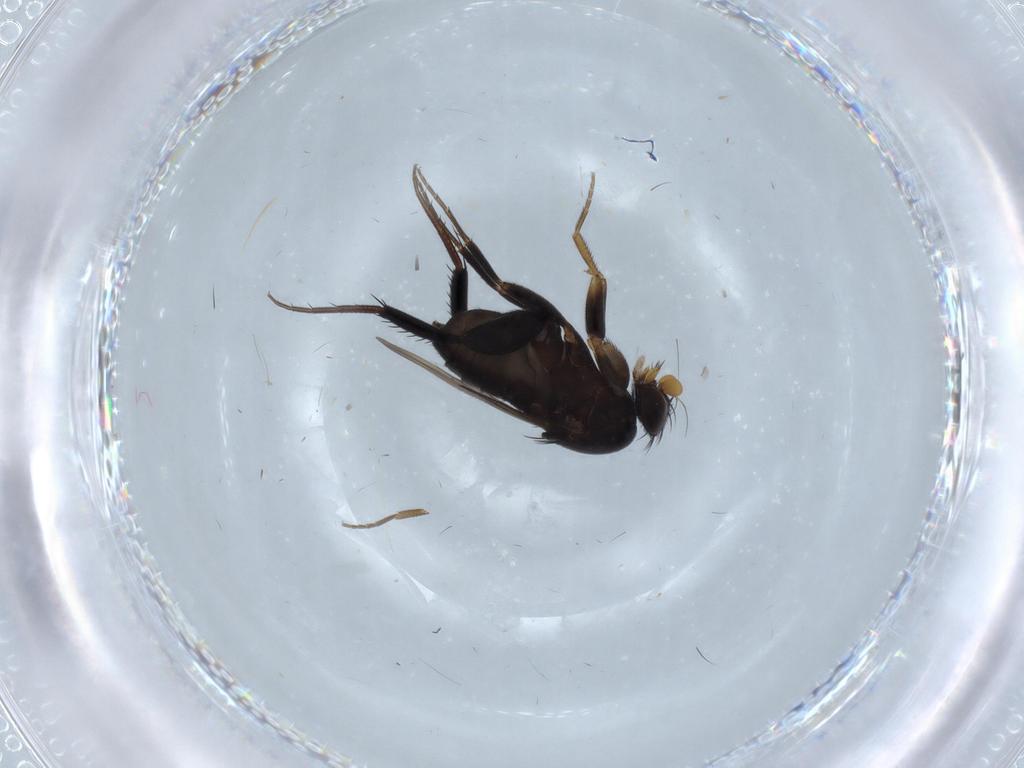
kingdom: Animalia
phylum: Arthropoda
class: Insecta
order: Diptera
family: Phoridae
